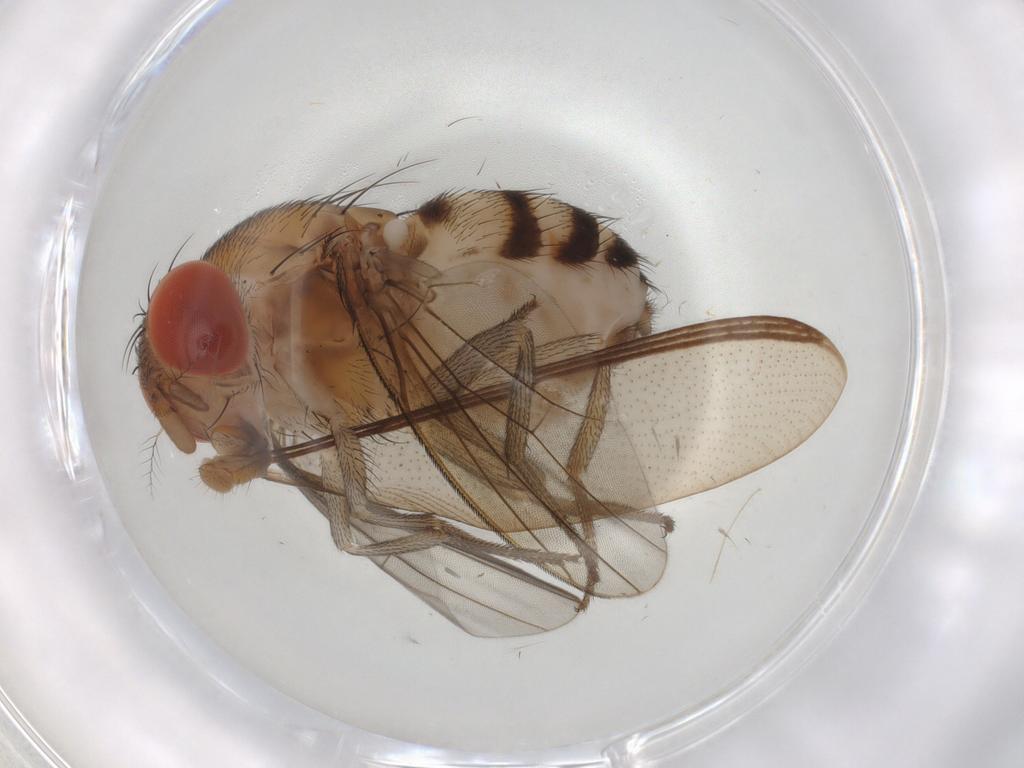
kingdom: Animalia
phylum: Arthropoda
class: Insecta
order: Diptera
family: Drosophilidae
